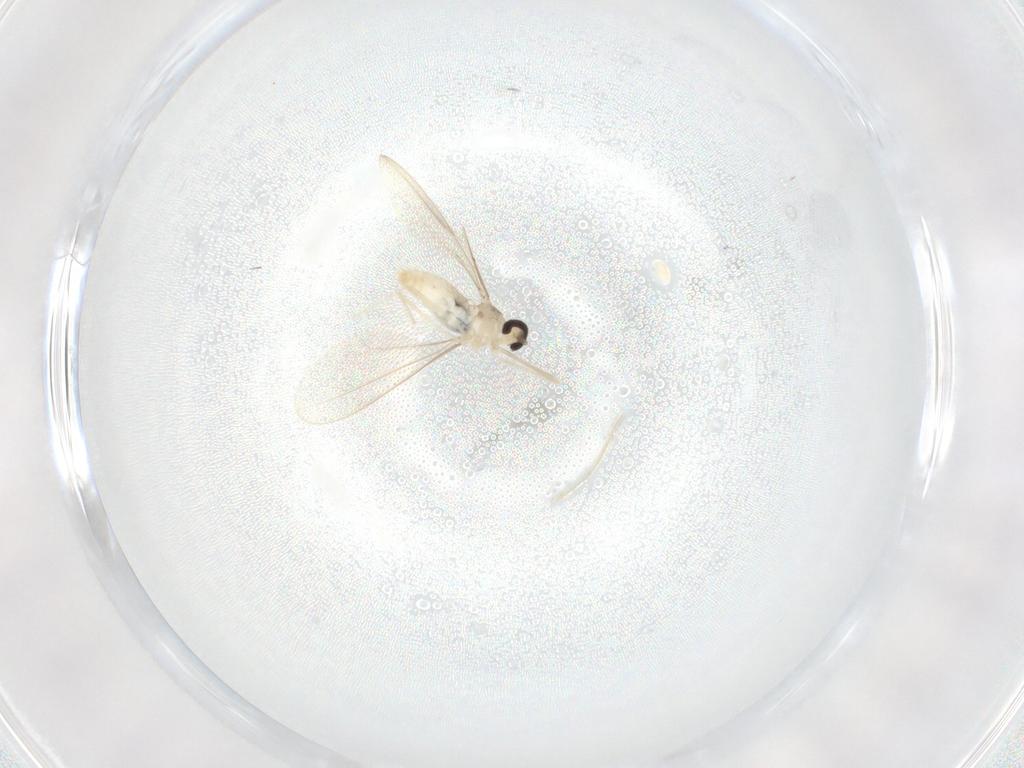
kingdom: Animalia
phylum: Arthropoda
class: Insecta
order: Diptera
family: Cecidomyiidae
